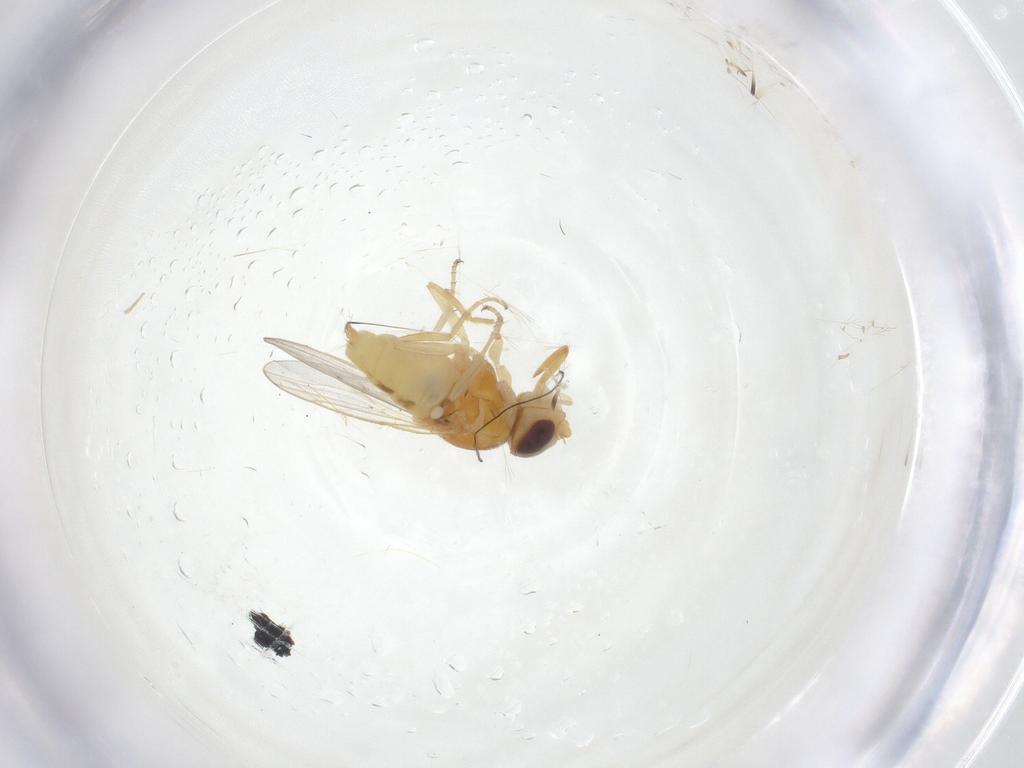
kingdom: Animalia
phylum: Arthropoda
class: Insecta
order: Diptera
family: Chloropidae
